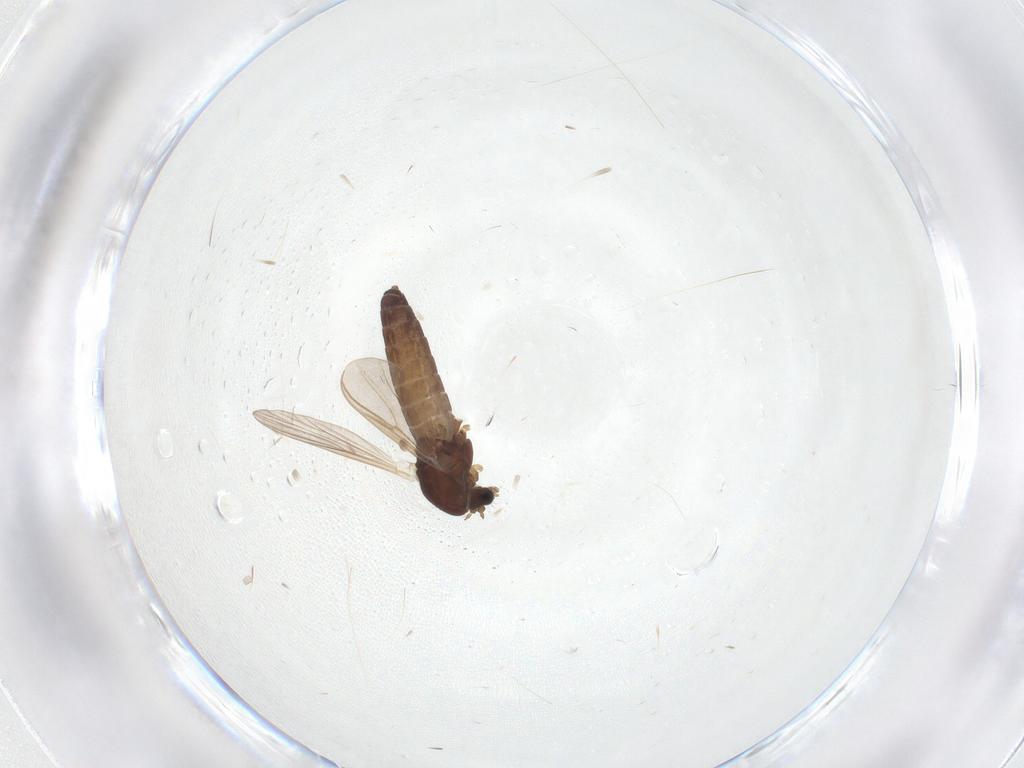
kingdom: Animalia
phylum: Arthropoda
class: Insecta
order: Diptera
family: Chironomidae
